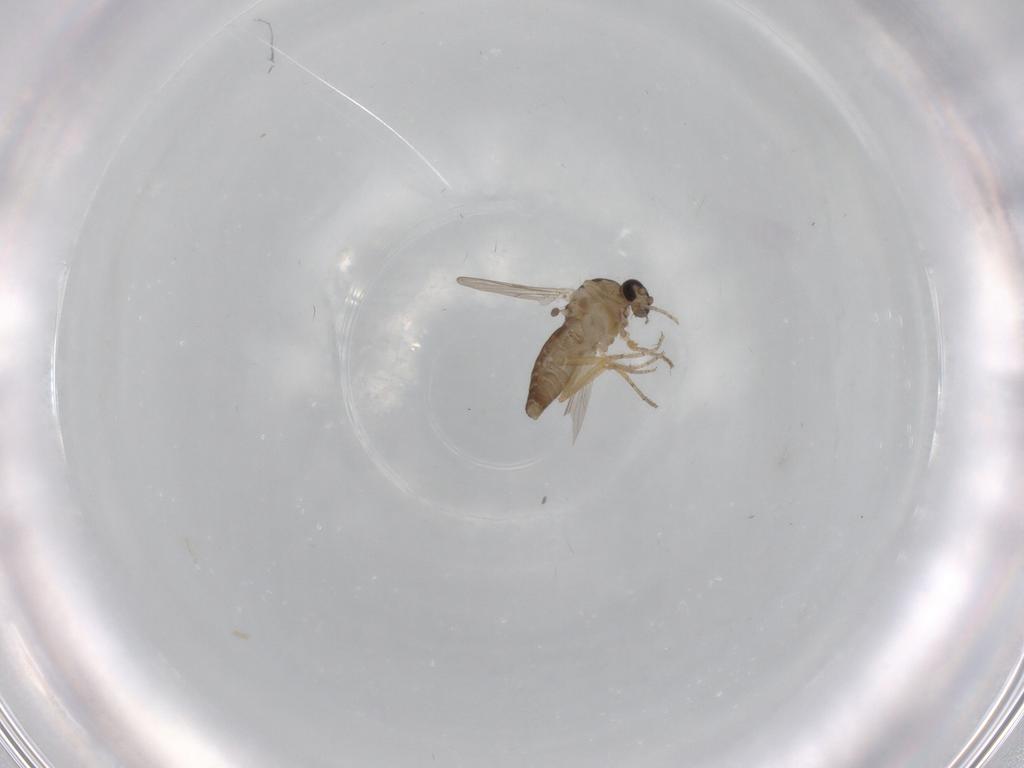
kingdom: Animalia
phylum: Arthropoda
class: Insecta
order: Diptera
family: Ceratopogonidae
